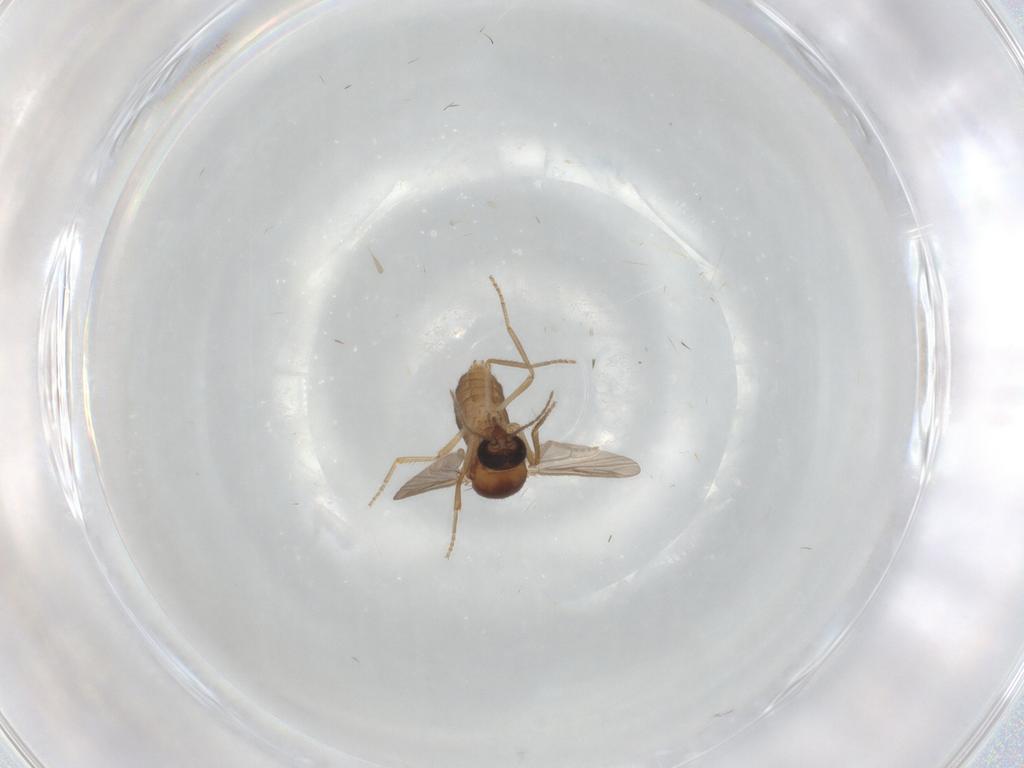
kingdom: Animalia
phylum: Arthropoda
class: Insecta
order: Diptera
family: Ceratopogonidae
